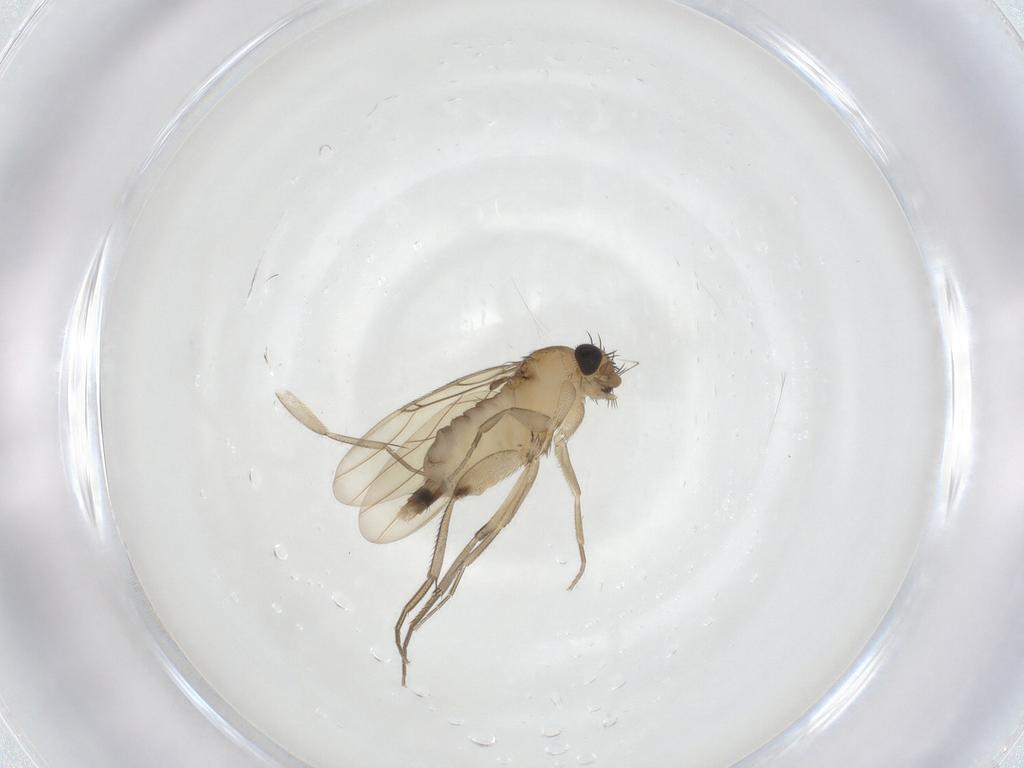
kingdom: Animalia
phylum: Arthropoda
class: Insecta
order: Diptera
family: Phoridae
